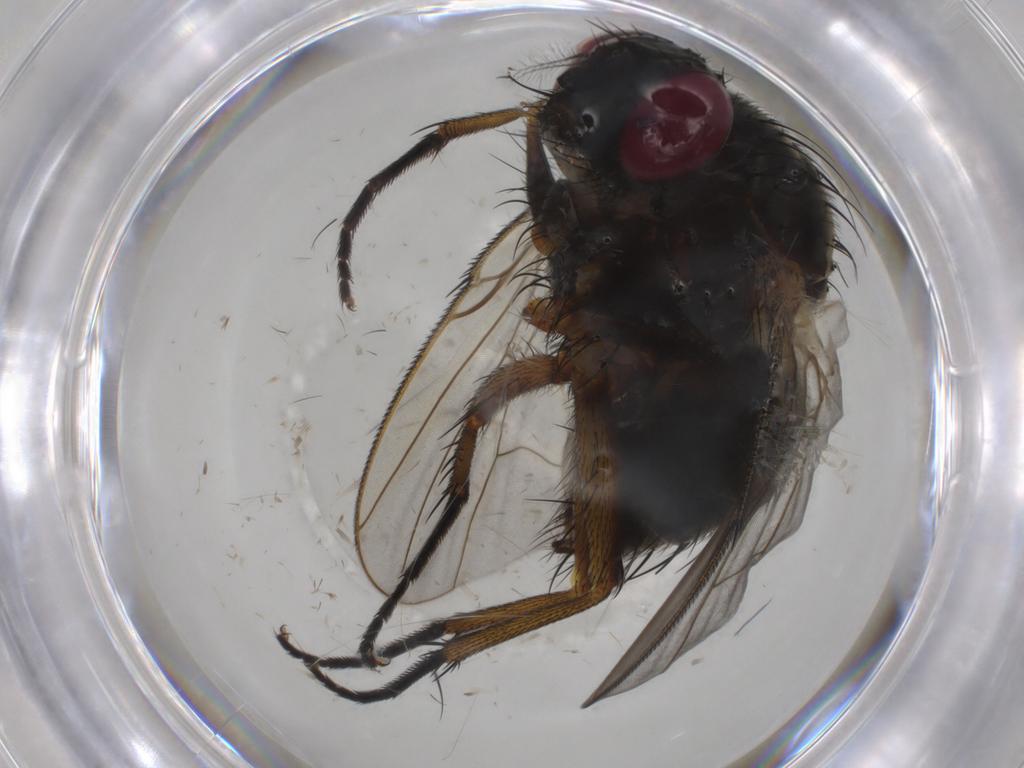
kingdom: Animalia
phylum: Arthropoda
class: Insecta
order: Diptera
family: Muscidae
